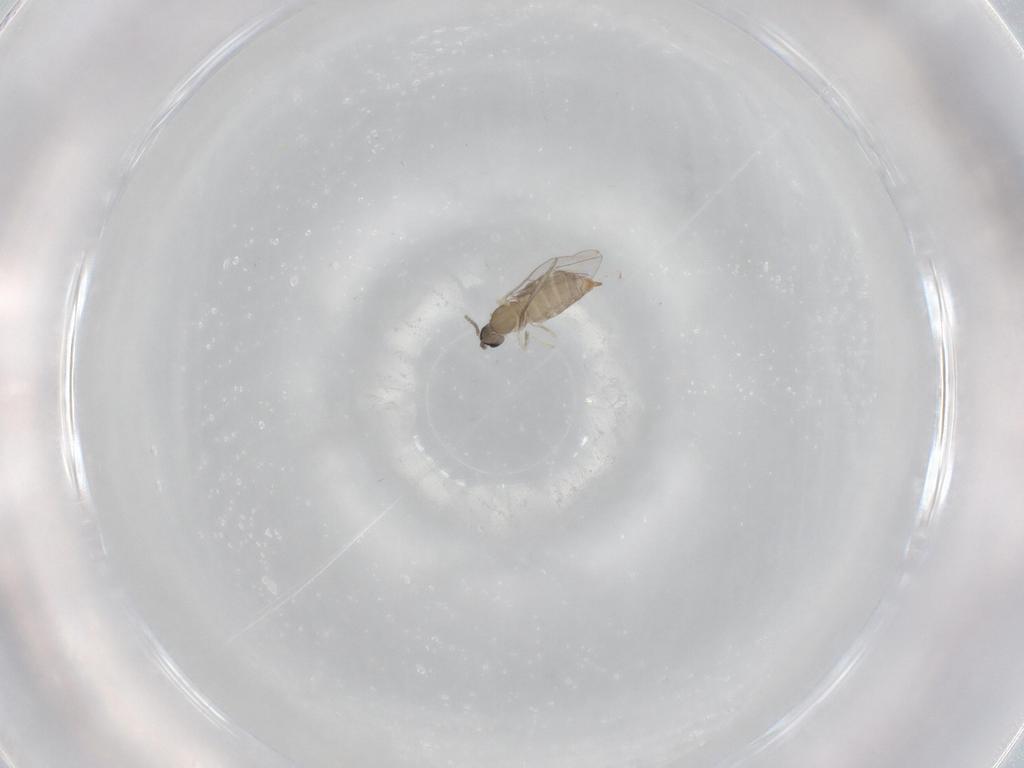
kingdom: Animalia
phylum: Arthropoda
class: Insecta
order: Diptera
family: Cecidomyiidae
